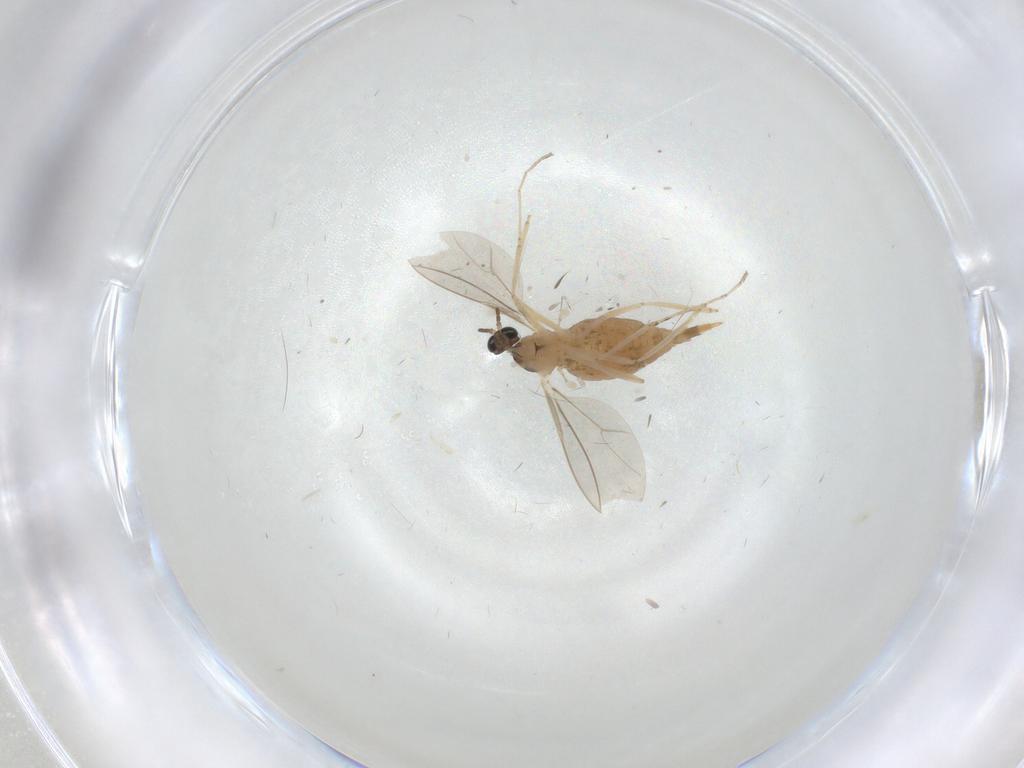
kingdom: Animalia
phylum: Arthropoda
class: Insecta
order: Diptera
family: Cecidomyiidae
